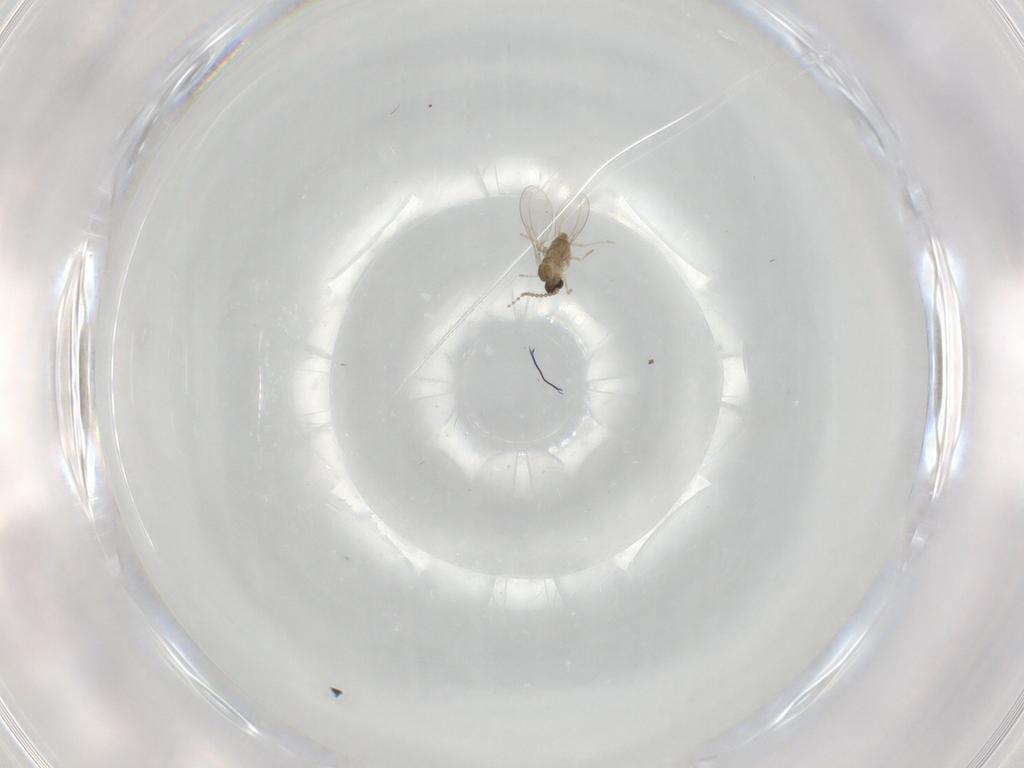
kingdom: Animalia
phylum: Arthropoda
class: Insecta
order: Diptera
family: Cecidomyiidae
